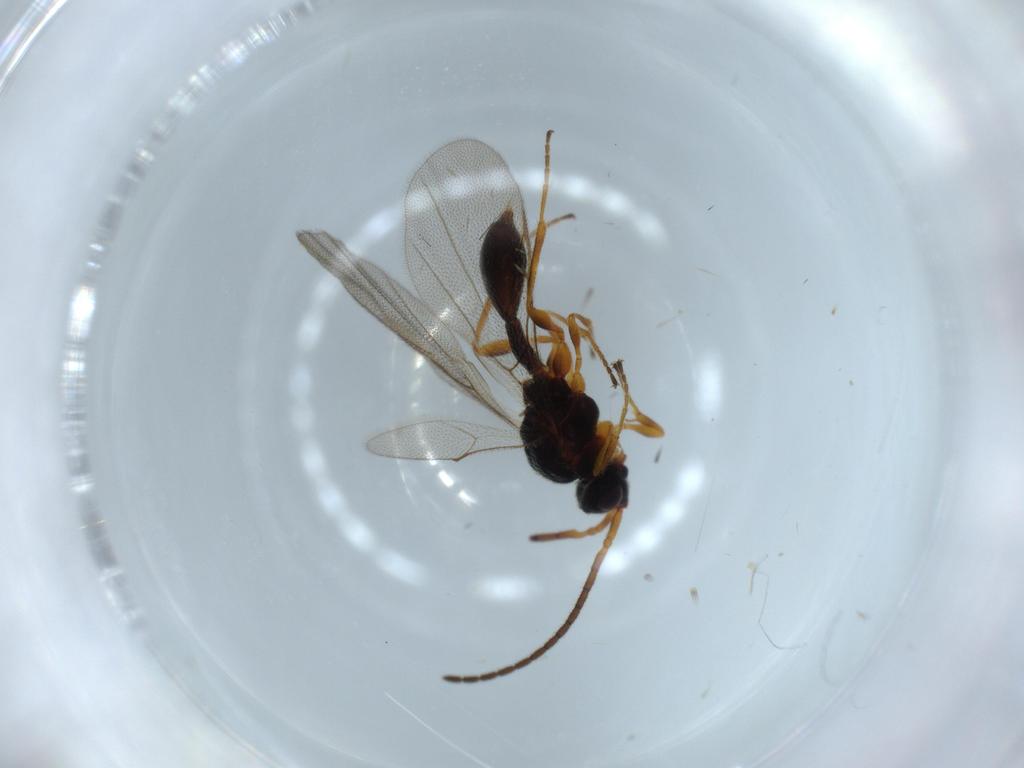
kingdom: Animalia
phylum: Arthropoda
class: Insecta
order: Hymenoptera
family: Diapriidae
